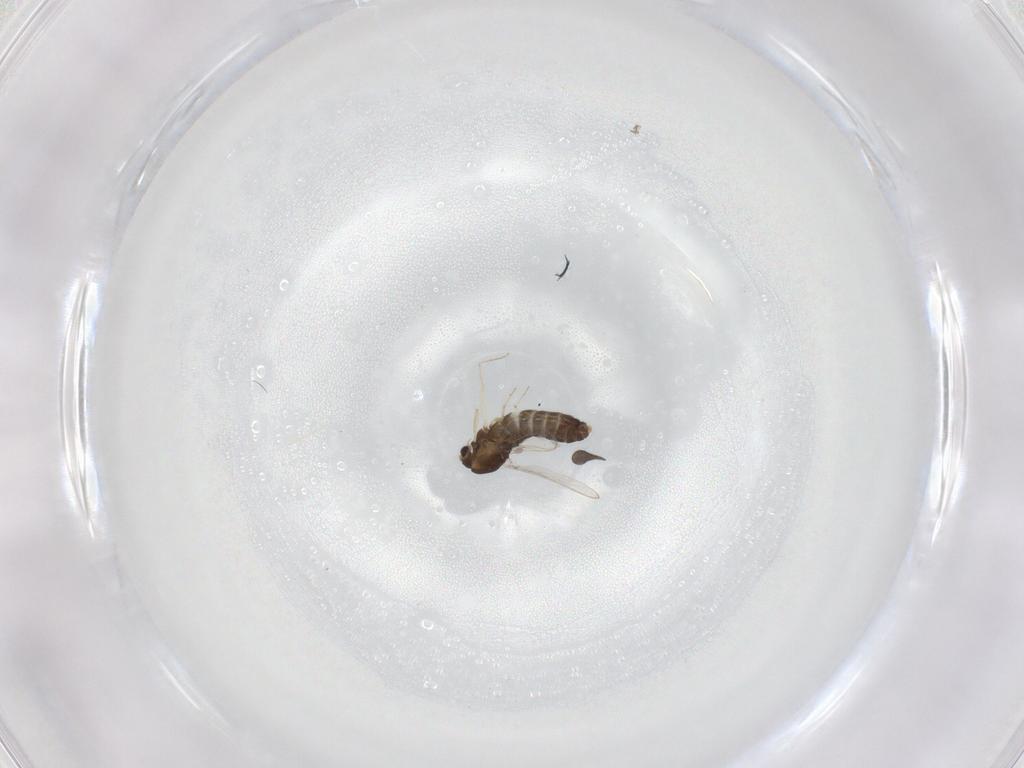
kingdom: Animalia
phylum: Arthropoda
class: Insecta
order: Diptera
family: Chironomidae
